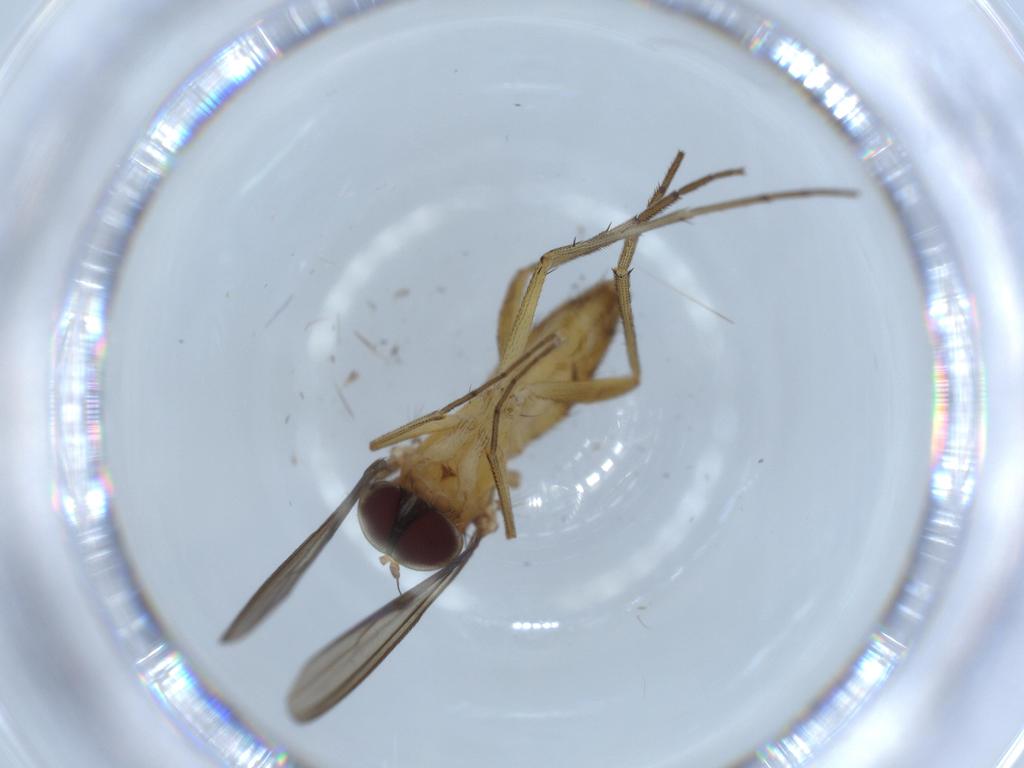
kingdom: Animalia
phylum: Arthropoda
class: Insecta
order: Diptera
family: Dolichopodidae
